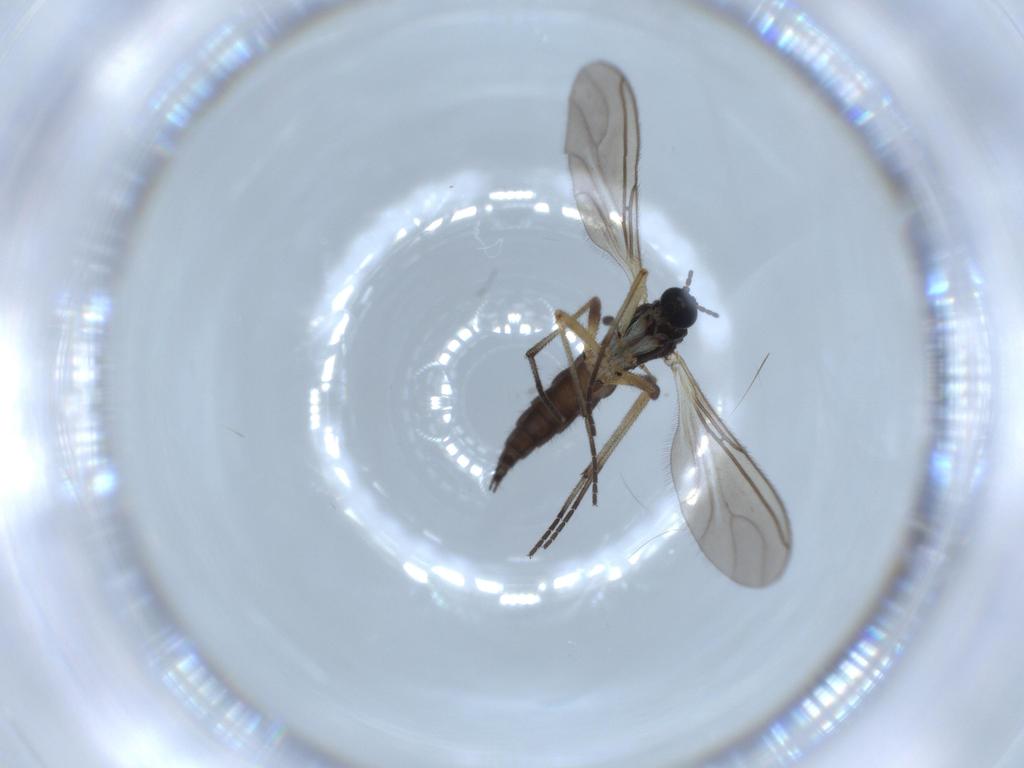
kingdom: Animalia
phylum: Arthropoda
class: Insecta
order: Diptera
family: Sciaridae
